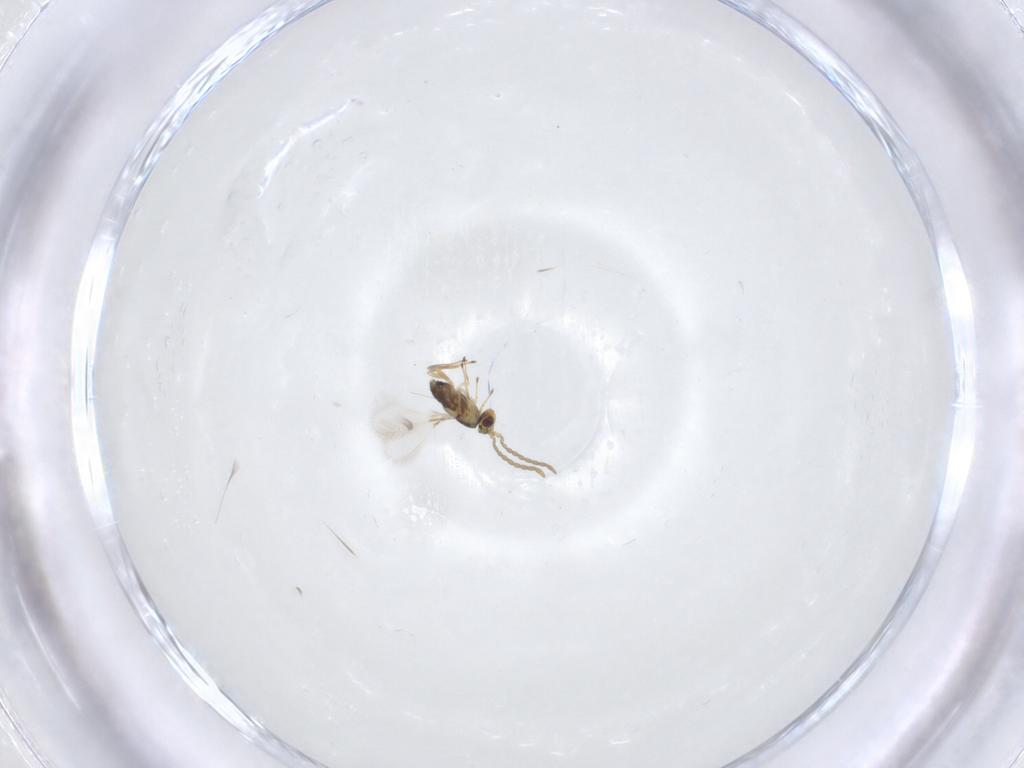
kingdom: Animalia
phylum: Arthropoda
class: Insecta
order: Hymenoptera
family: Mymaridae
